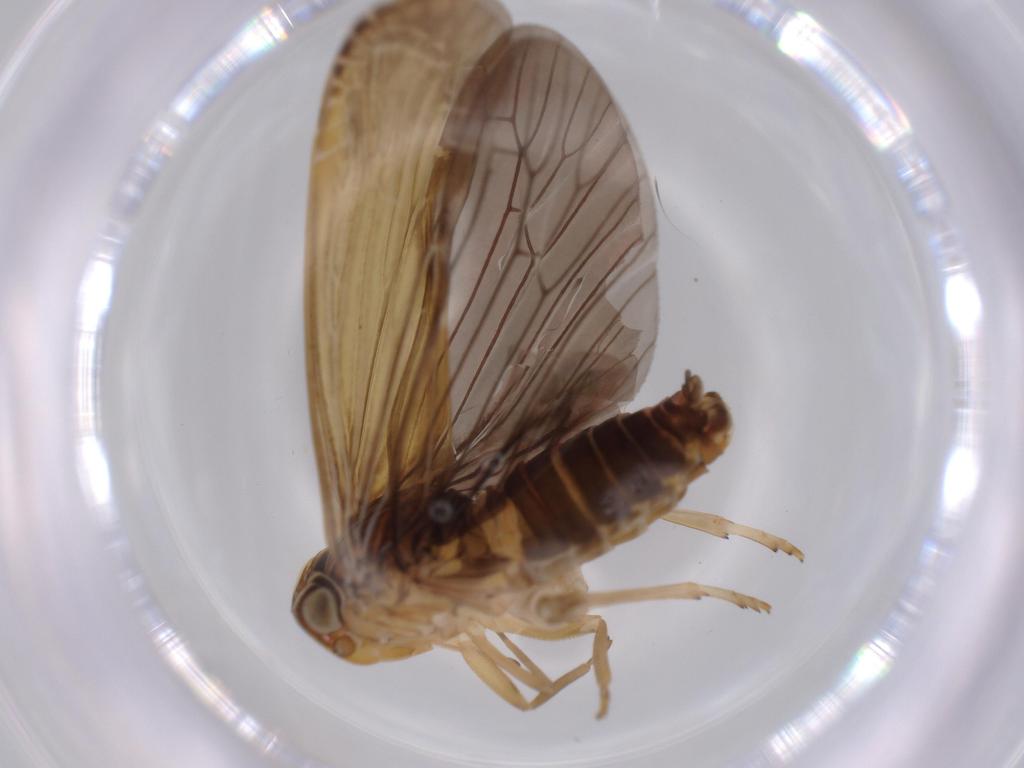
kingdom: Animalia
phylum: Arthropoda
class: Insecta
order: Hemiptera
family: Achilidae
